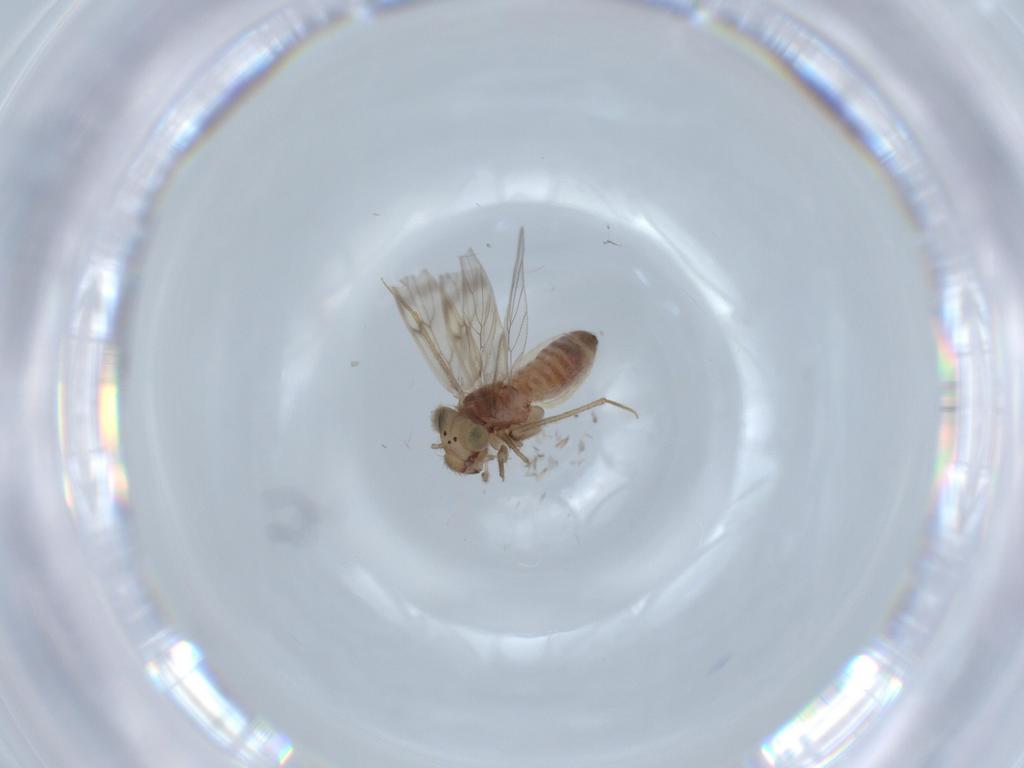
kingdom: Animalia
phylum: Arthropoda
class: Insecta
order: Psocodea
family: Lepidopsocidae
